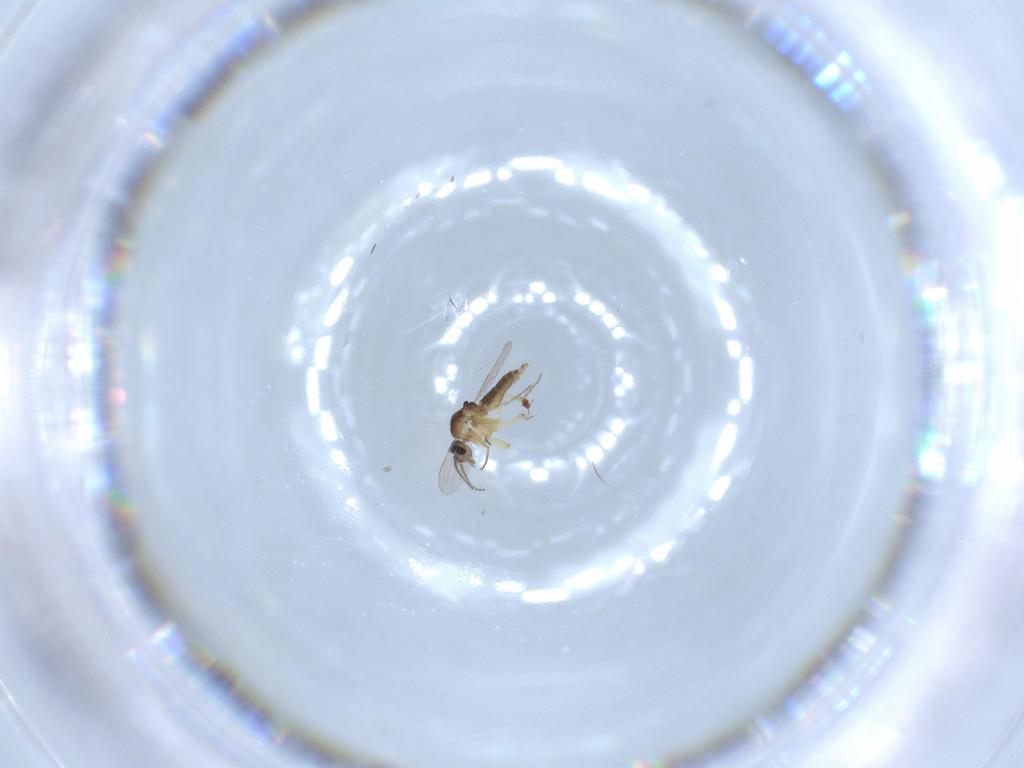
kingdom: Animalia
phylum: Arthropoda
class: Insecta
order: Diptera
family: Ceratopogonidae
